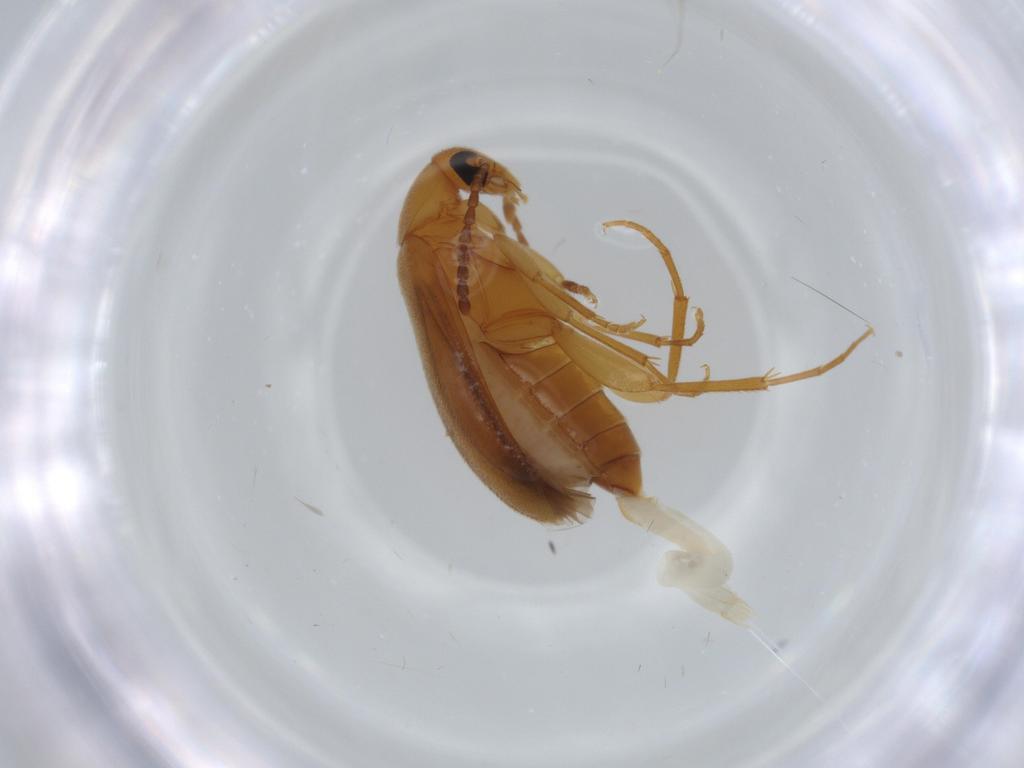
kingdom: Animalia
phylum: Arthropoda
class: Insecta
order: Coleoptera
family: Scraptiidae
